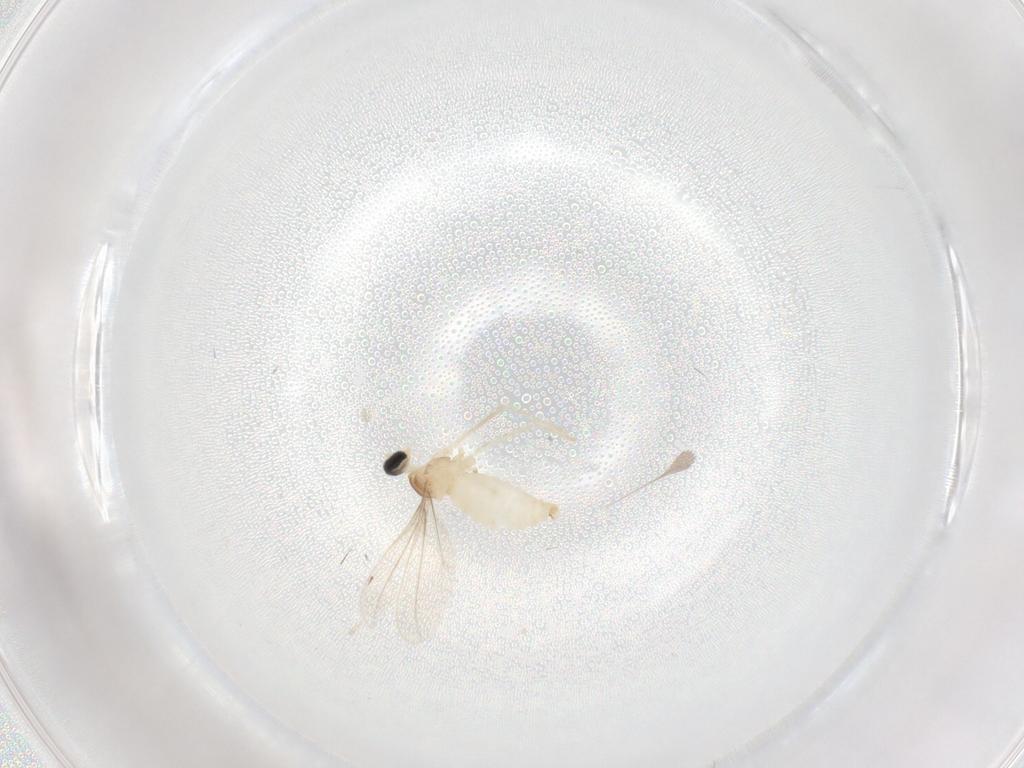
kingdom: Animalia
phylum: Arthropoda
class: Insecta
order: Diptera
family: Cecidomyiidae
